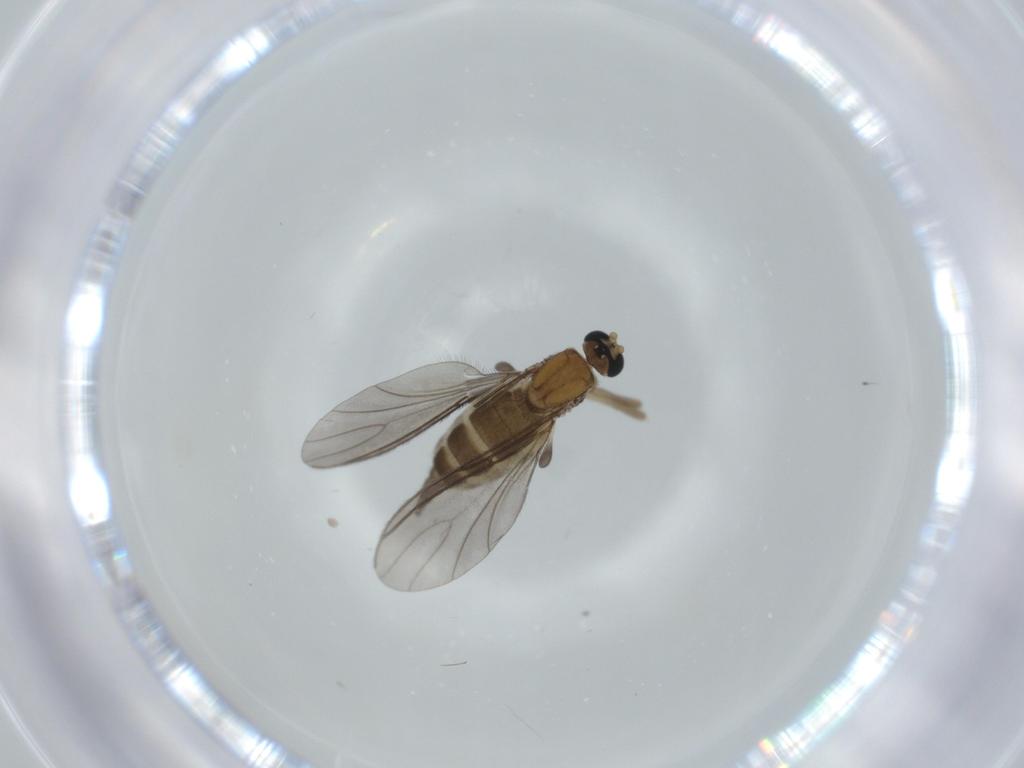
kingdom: Animalia
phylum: Arthropoda
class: Insecta
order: Diptera
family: Sciaridae
